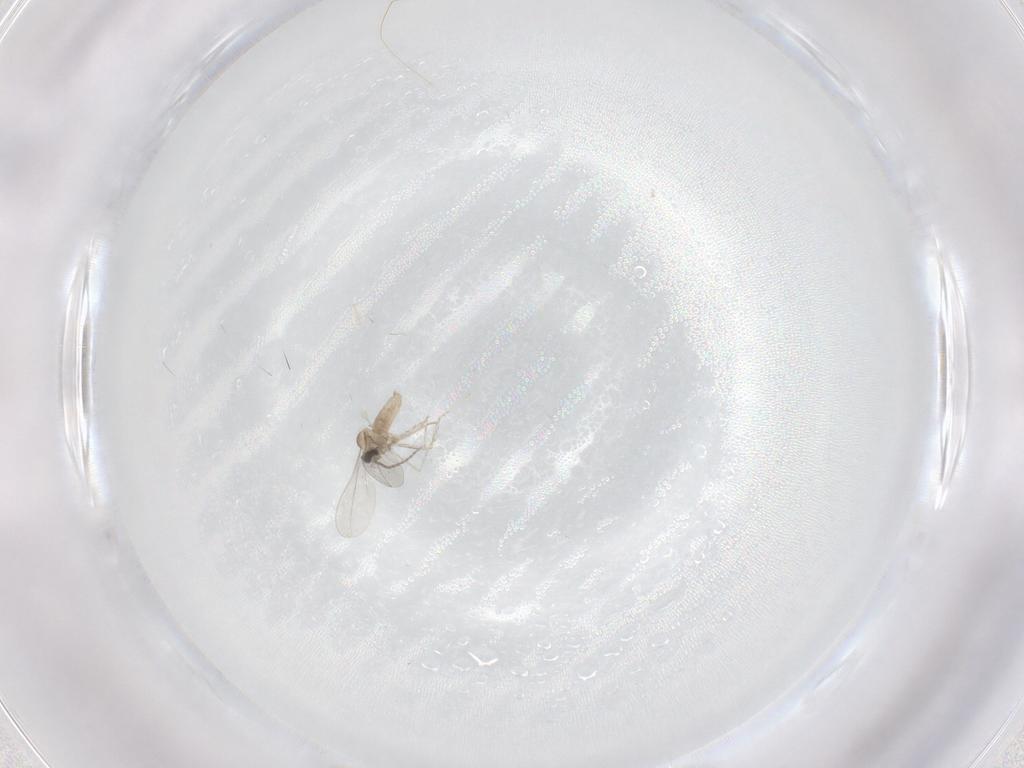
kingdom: Animalia
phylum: Arthropoda
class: Insecta
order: Diptera
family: Cecidomyiidae
